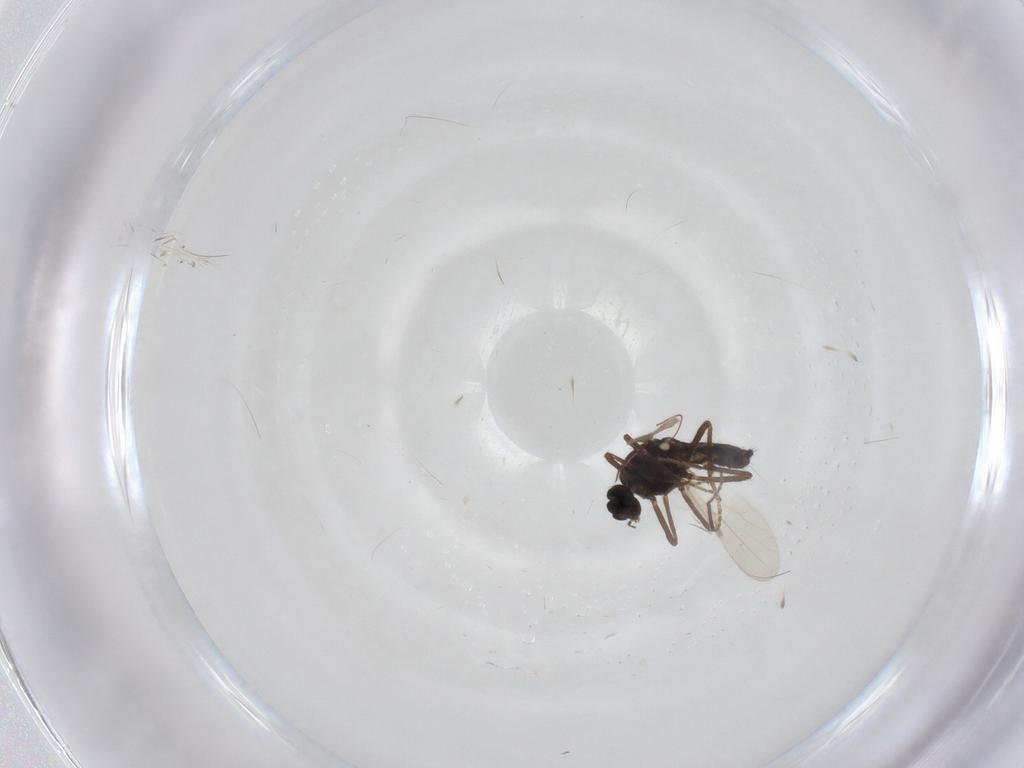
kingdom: Animalia
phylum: Arthropoda
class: Insecta
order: Diptera
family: Ceratopogonidae
